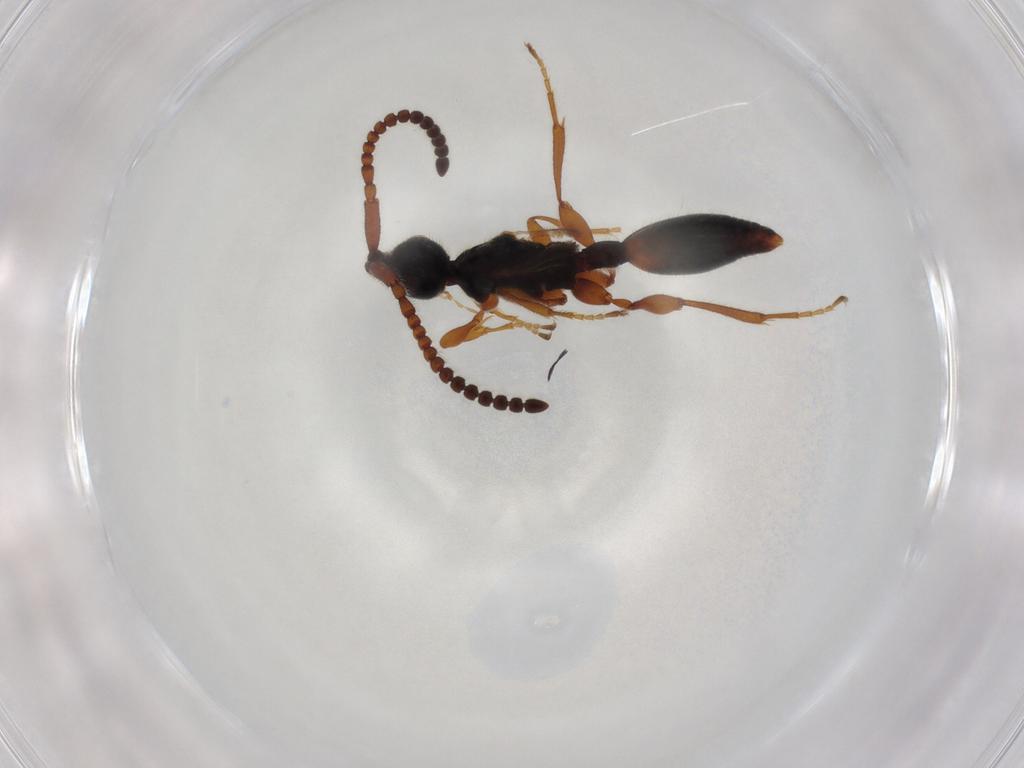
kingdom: Animalia
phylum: Arthropoda
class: Insecta
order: Hymenoptera
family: Ichneumonidae
